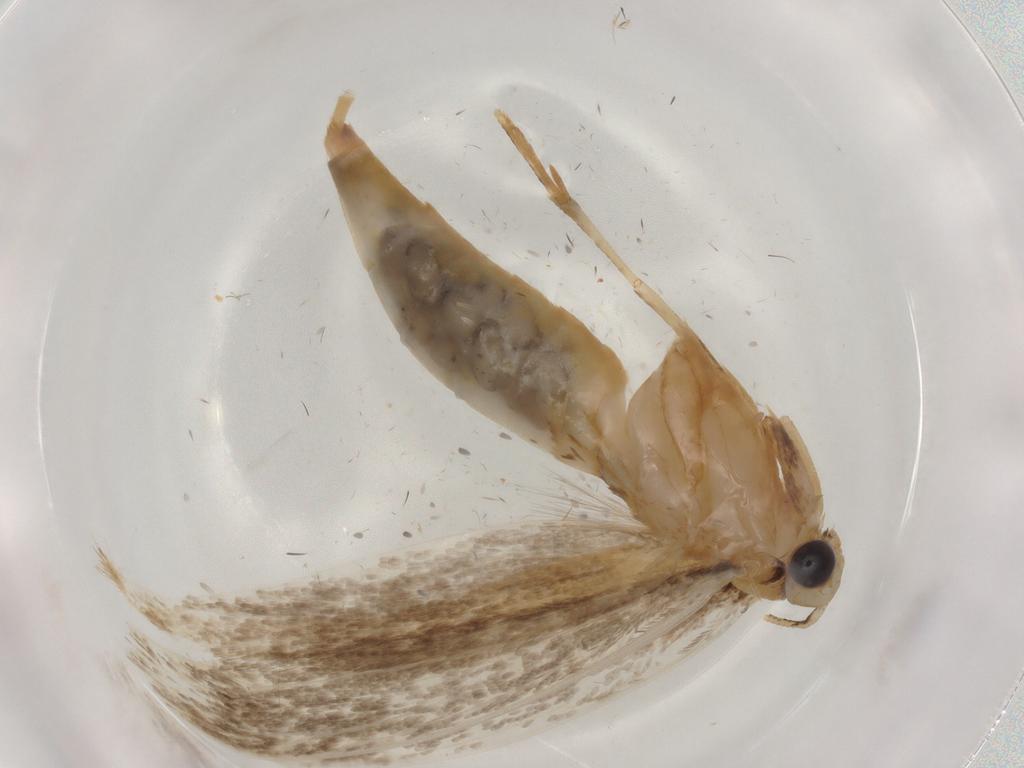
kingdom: Animalia
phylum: Arthropoda
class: Insecta
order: Lepidoptera
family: Tineidae
